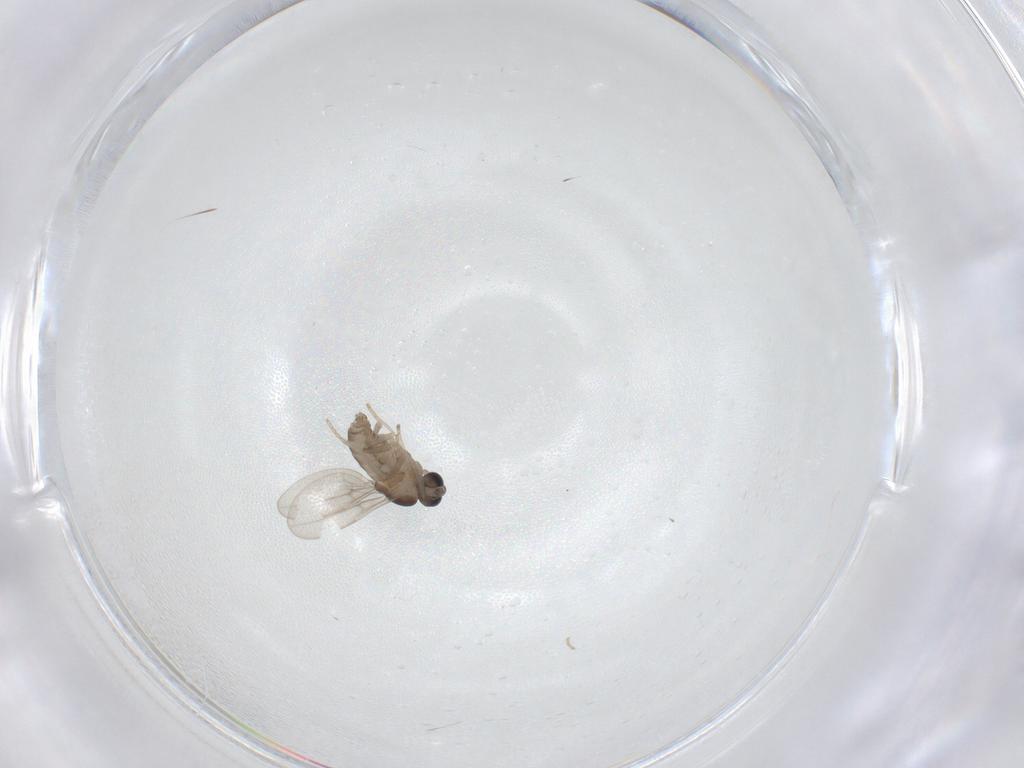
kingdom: Animalia
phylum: Arthropoda
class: Insecta
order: Diptera
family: Cecidomyiidae
